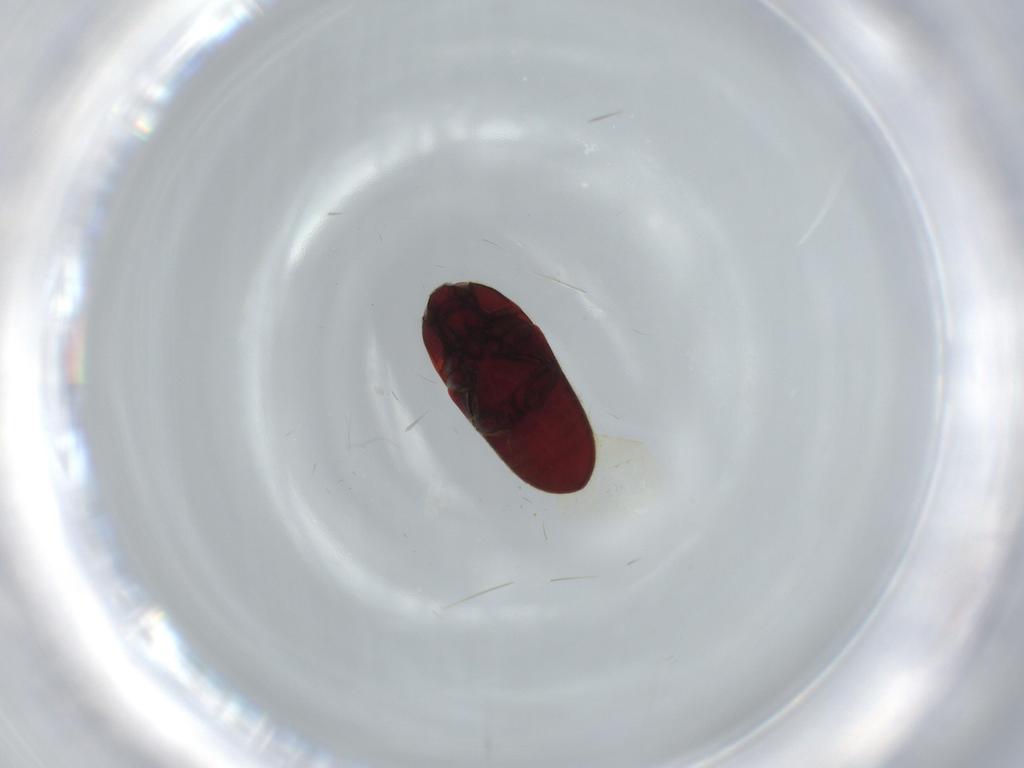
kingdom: Animalia
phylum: Arthropoda
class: Insecta
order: Coleoptera
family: Throscidae
